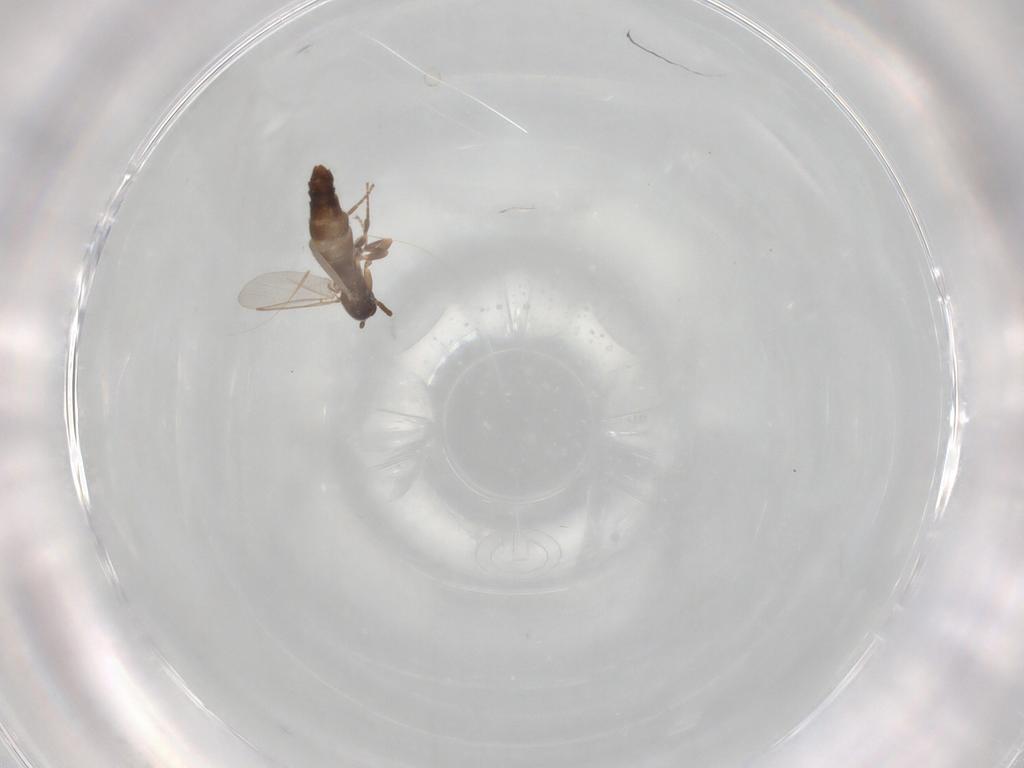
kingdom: Animalia
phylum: Arthropoda
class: Insecta
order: Diptera
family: Scatopsidae
